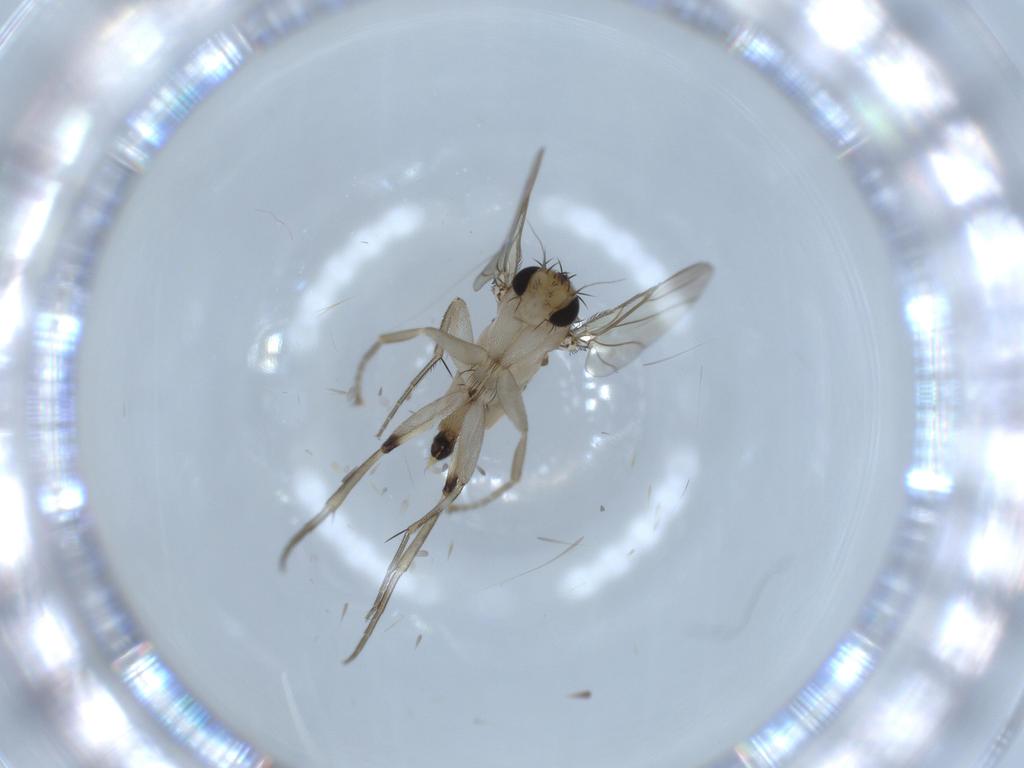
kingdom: Animalia
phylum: Arthropoda
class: Insecta
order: Diptera
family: Phoridae
